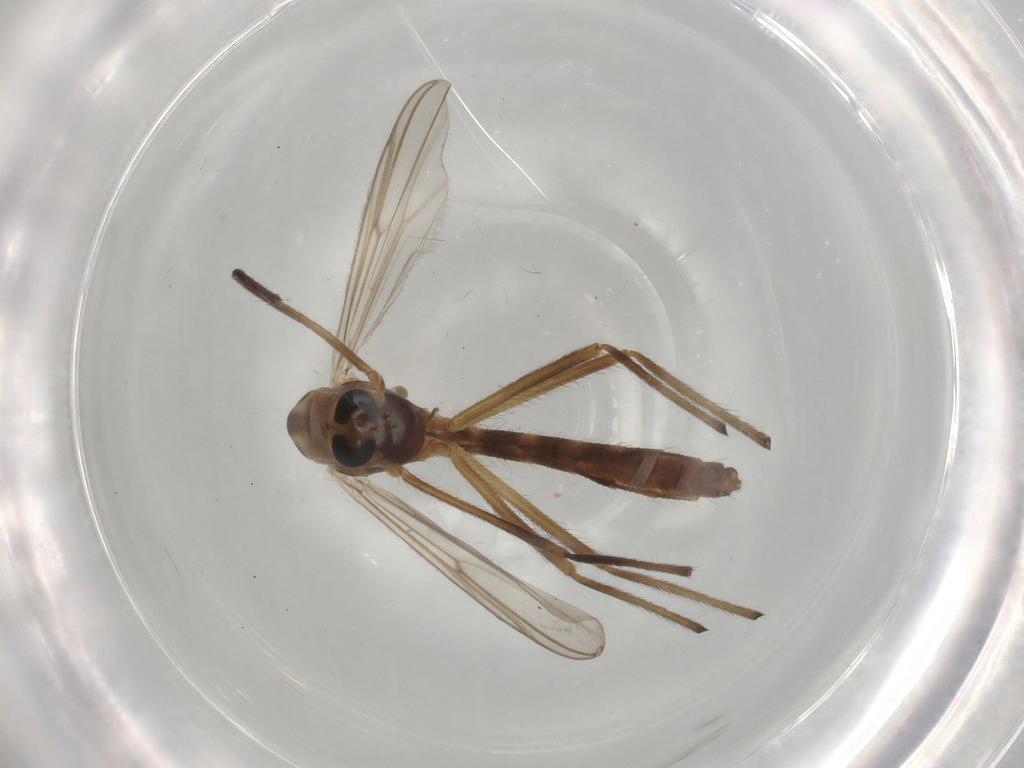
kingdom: Animalia
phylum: Arthropoda
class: Insecta
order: Diptera
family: Chironomidae
